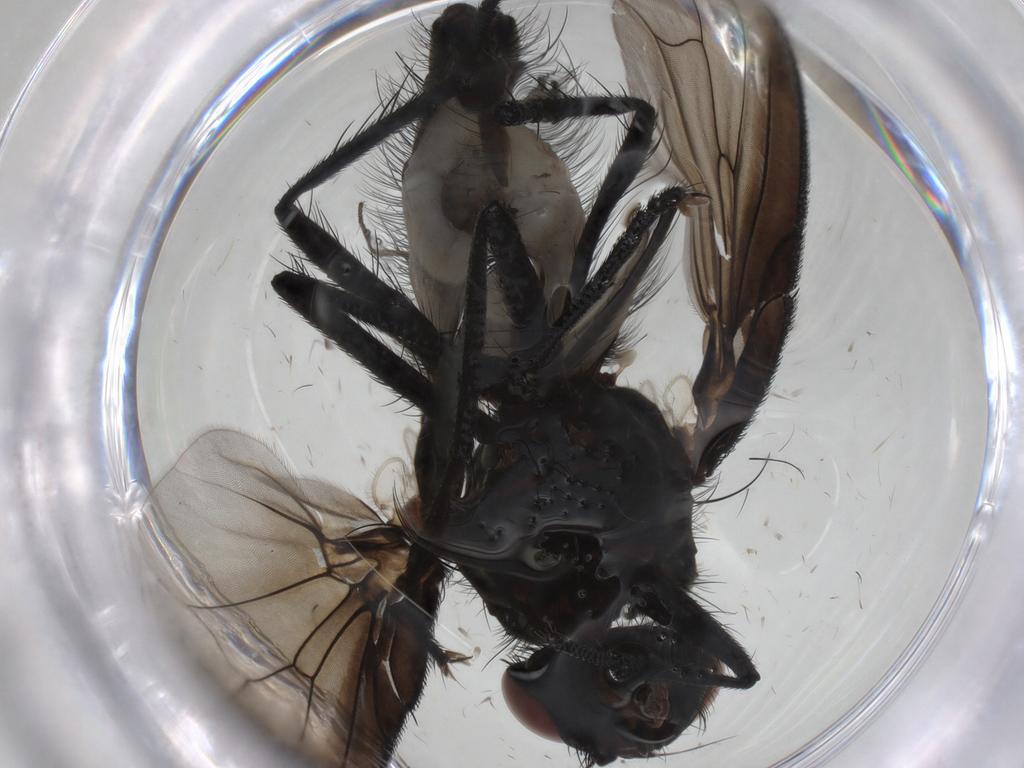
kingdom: Animalia
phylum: Arthropoda
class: Insecta
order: Diptera
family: Anthomyiidae
